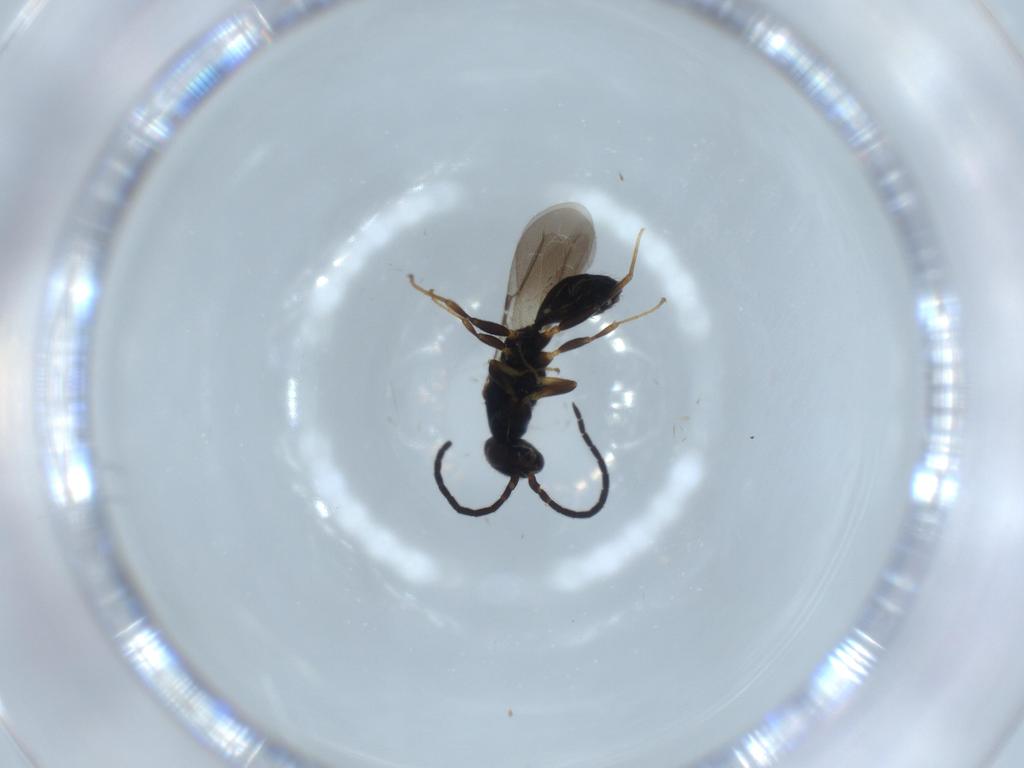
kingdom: Animalia
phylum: Arthropoda
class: Insecta
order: Hymenoptera
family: Bethylidae
